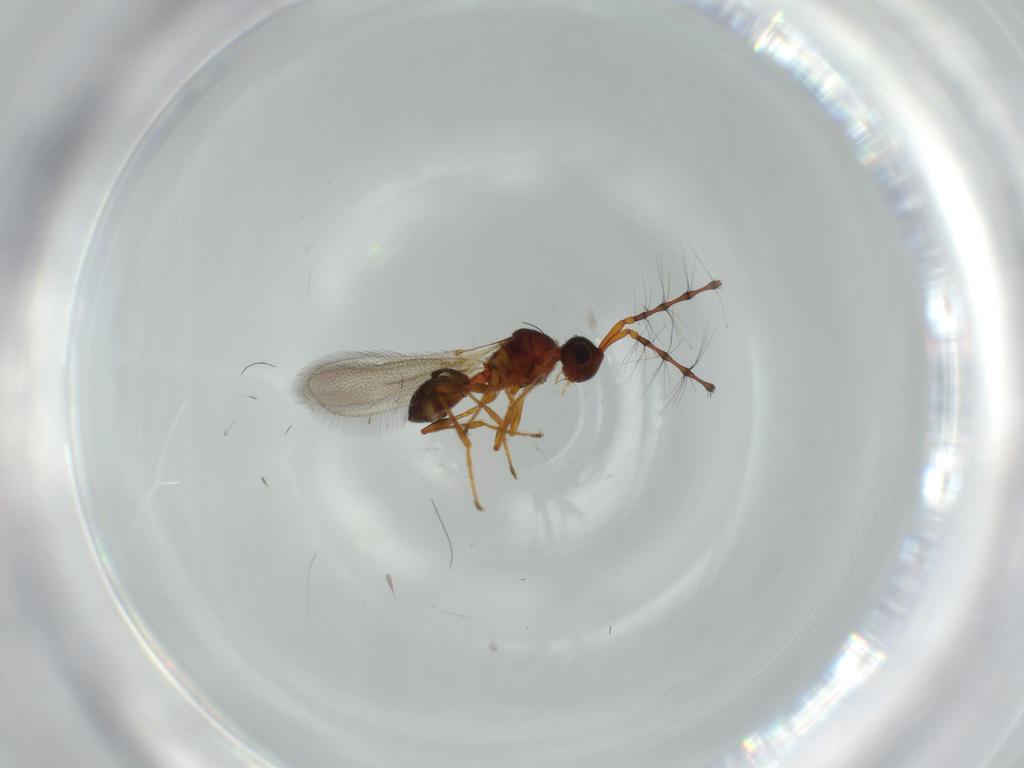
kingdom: Animalia
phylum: Arthropoda
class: Insecta
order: Hymenoptera
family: Diapriidae
